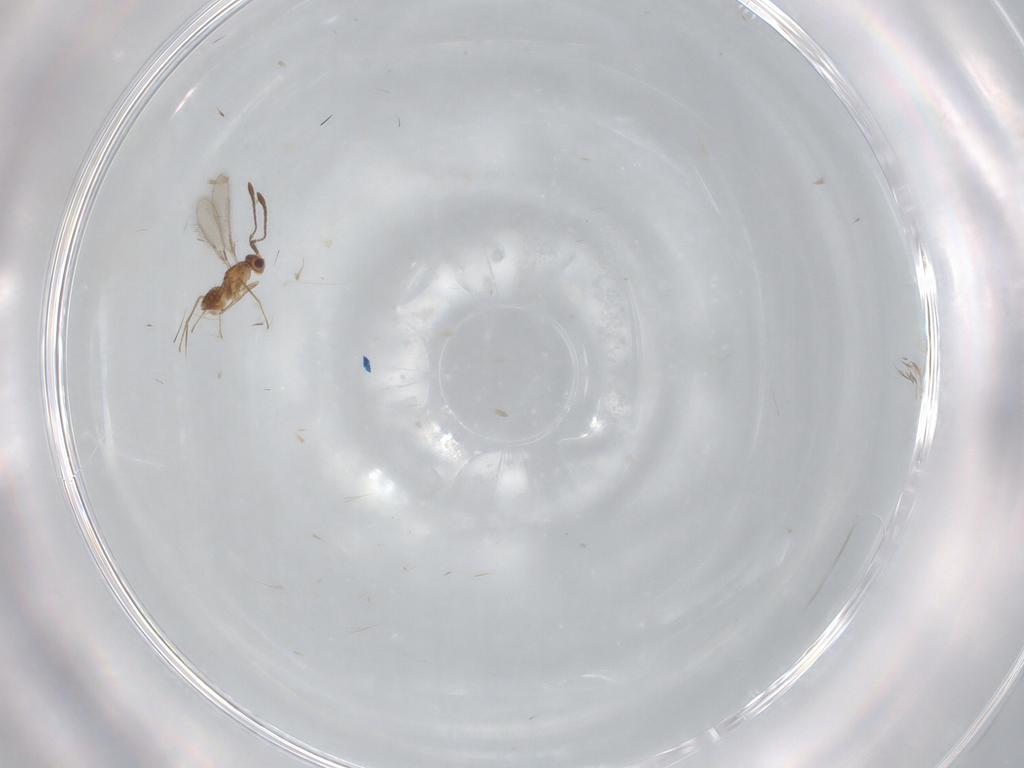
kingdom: Animalia
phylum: Arthropoda
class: Insecta
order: Hymenoptera
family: Mymaridae
